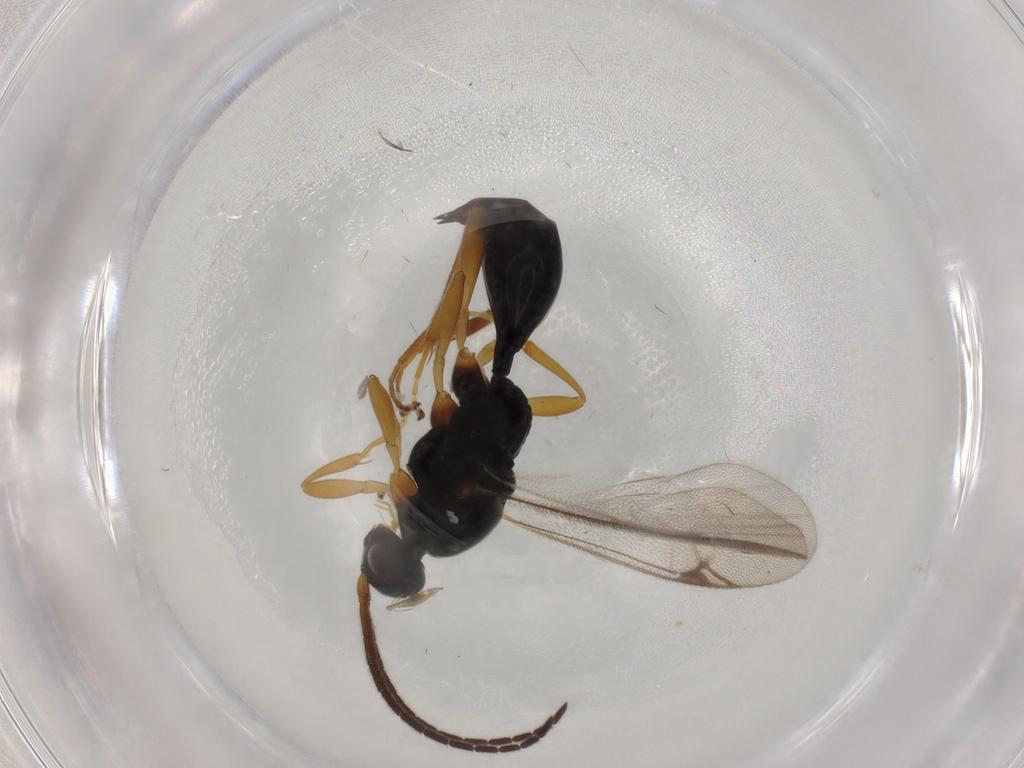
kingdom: Animalia
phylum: Arthropoda
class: Insecta
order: Hymenoptera
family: Proctotrupidae
